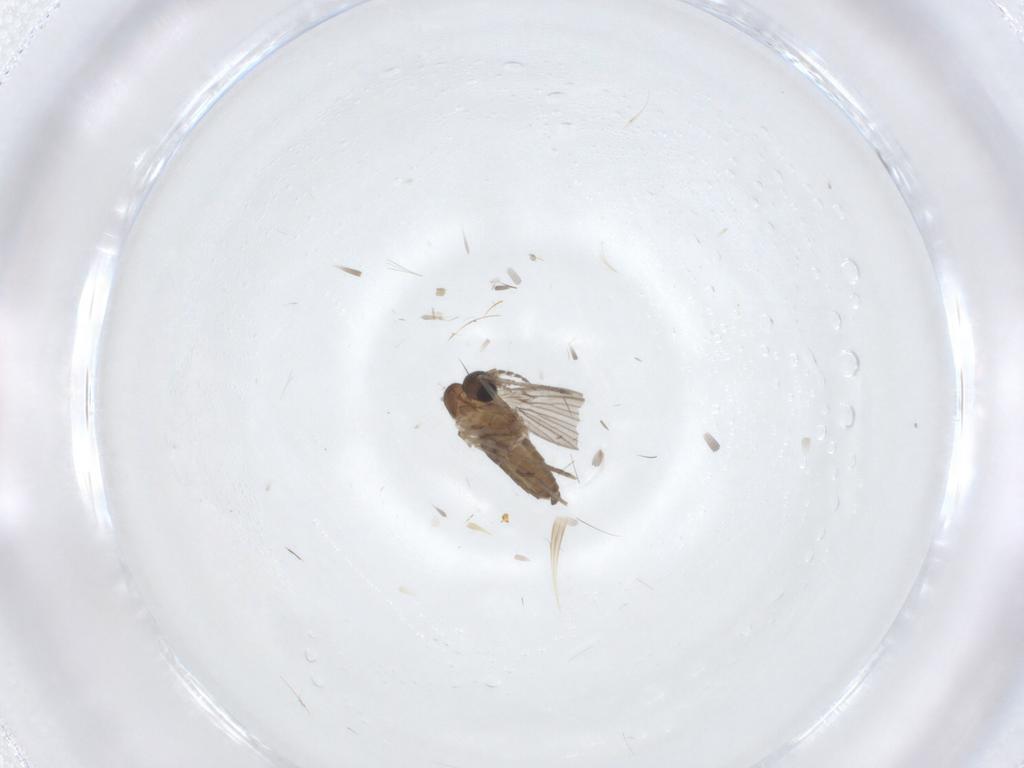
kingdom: Animalia
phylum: Arthropoda
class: Insecta
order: Diptera
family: Psychodidae
